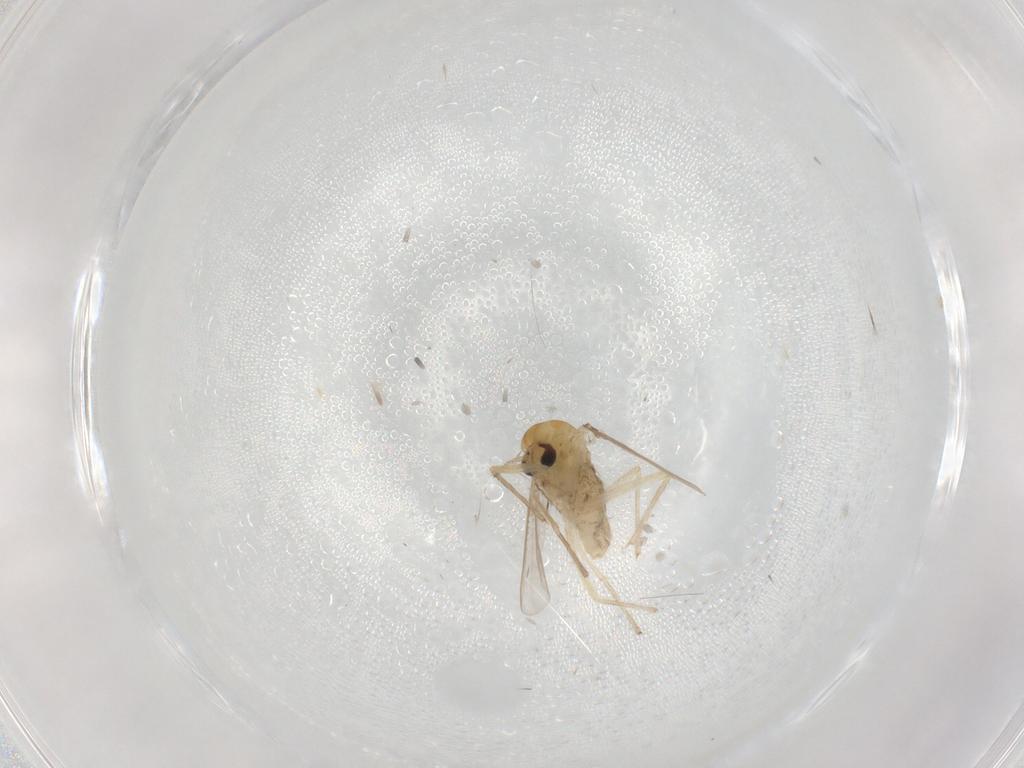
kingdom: Animalia
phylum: Arthropoda
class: Insecta
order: Diptera
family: Chironomidae
